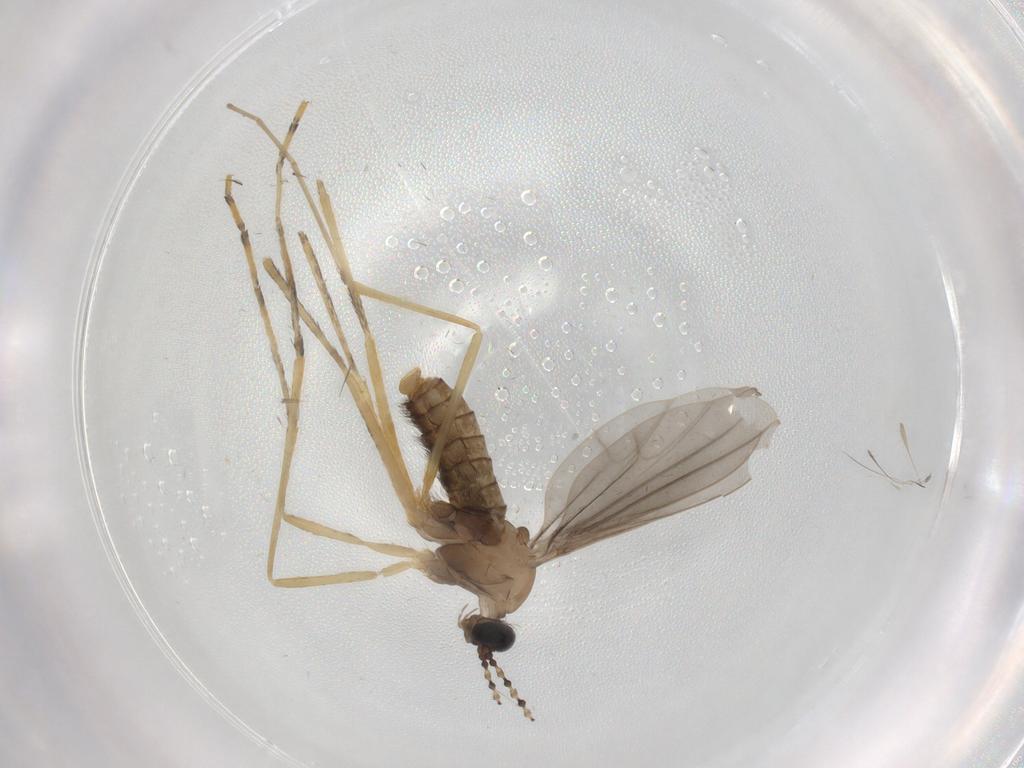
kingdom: Animalia
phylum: Arthropoda
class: Insecta
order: Diptera
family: Cecidomyiidae
